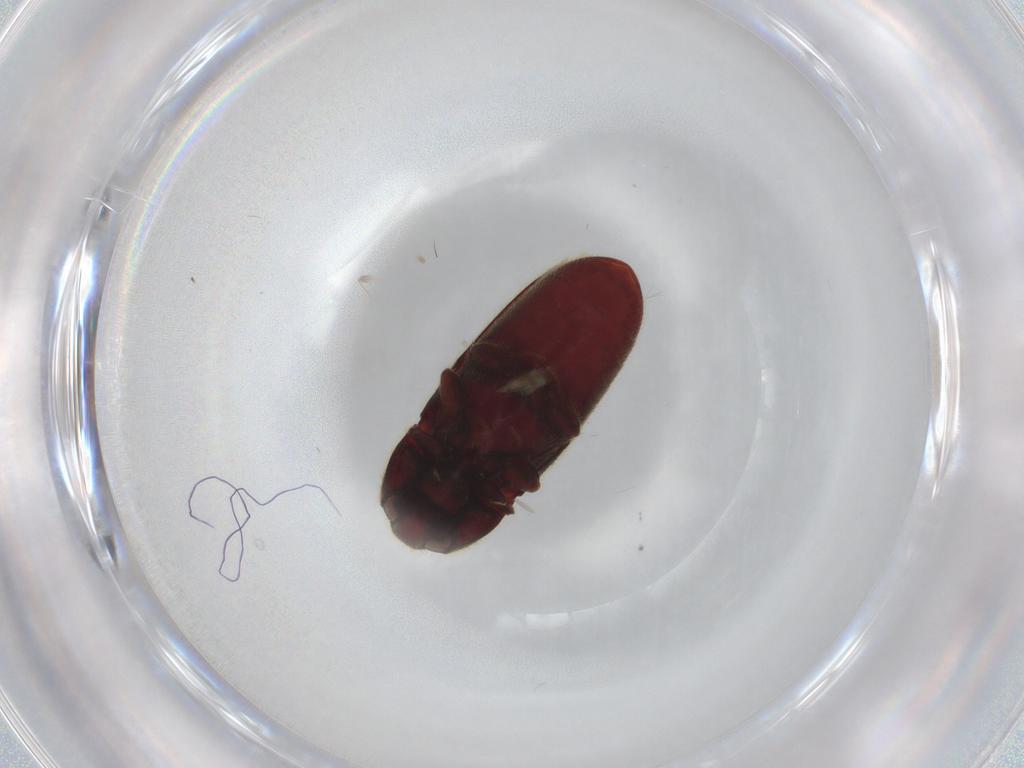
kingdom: Animalia
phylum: Arthropoda
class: Insecta
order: Coleoptera
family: Throscidae
